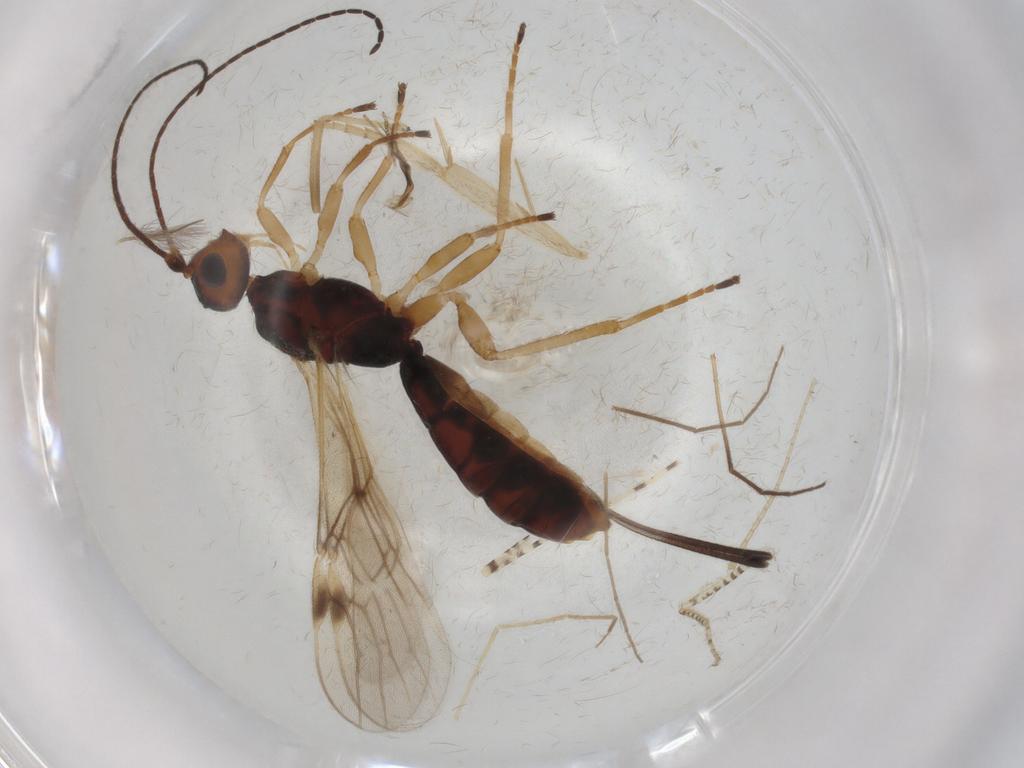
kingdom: Animalia
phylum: Arthropoda
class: Insecta
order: Hymenoptera
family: Braconidae
